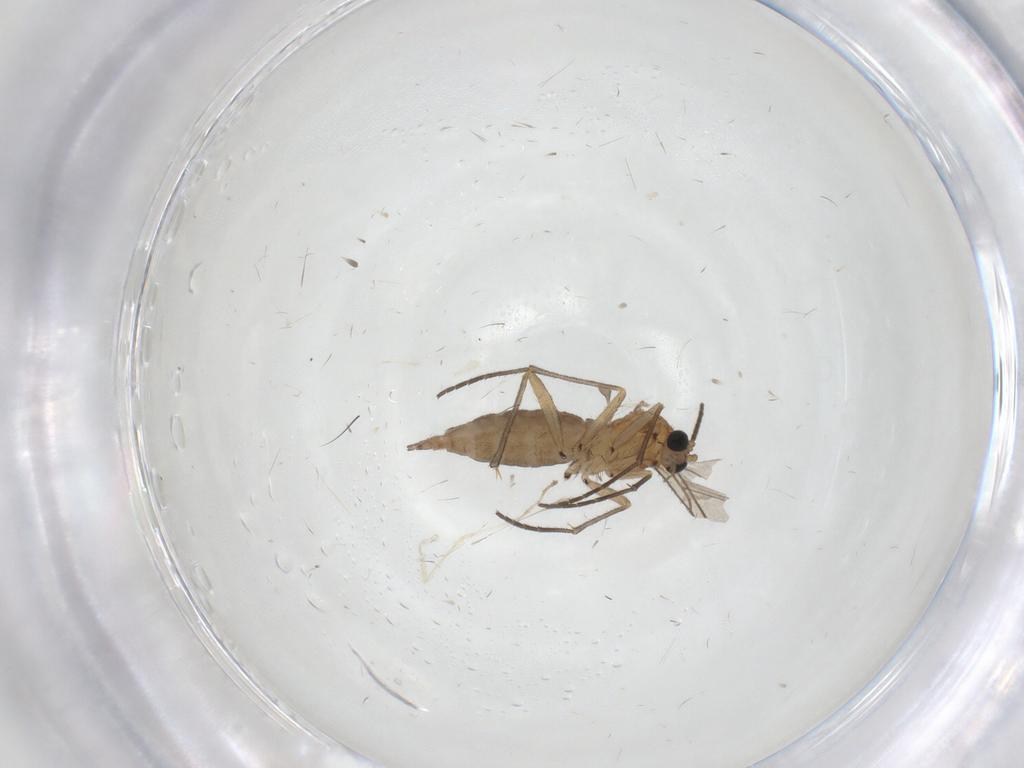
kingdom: Animalia
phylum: Arthropoda
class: Insecta
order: Diptera
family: Sciaridae
